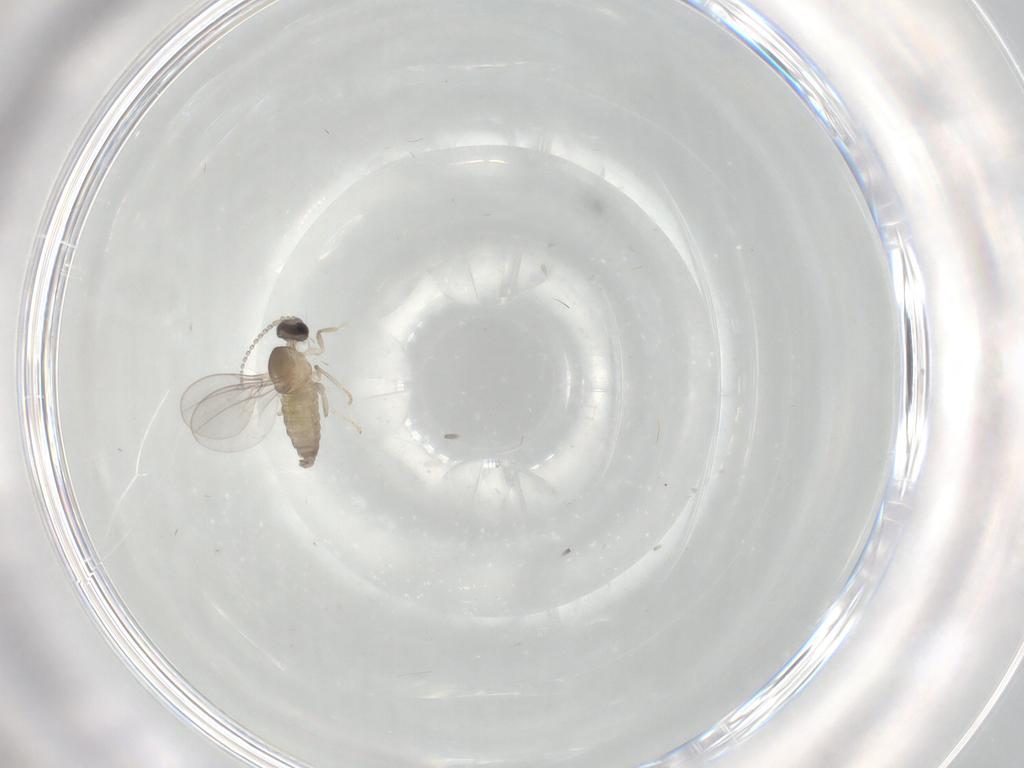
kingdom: Animalia
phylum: Arthropoda
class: Insecta
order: Diptera
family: Cecidomyiidae
